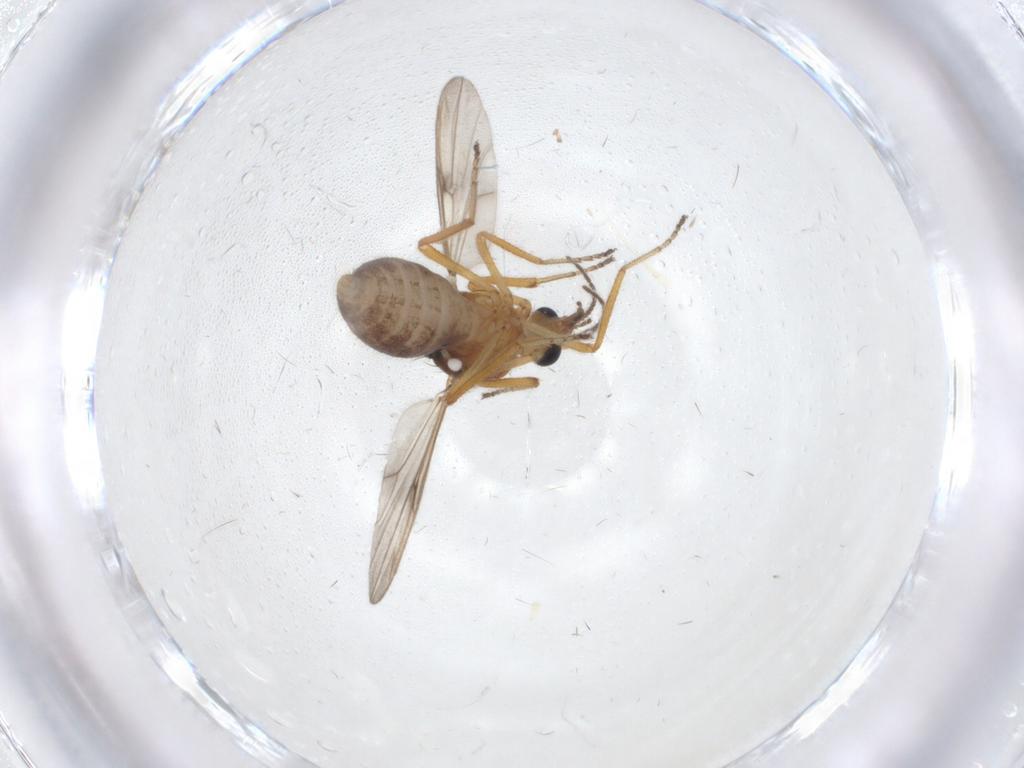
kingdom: Animalia
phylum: Arthropoda
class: Insecta
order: Diptera
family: Ceratopogonidae
